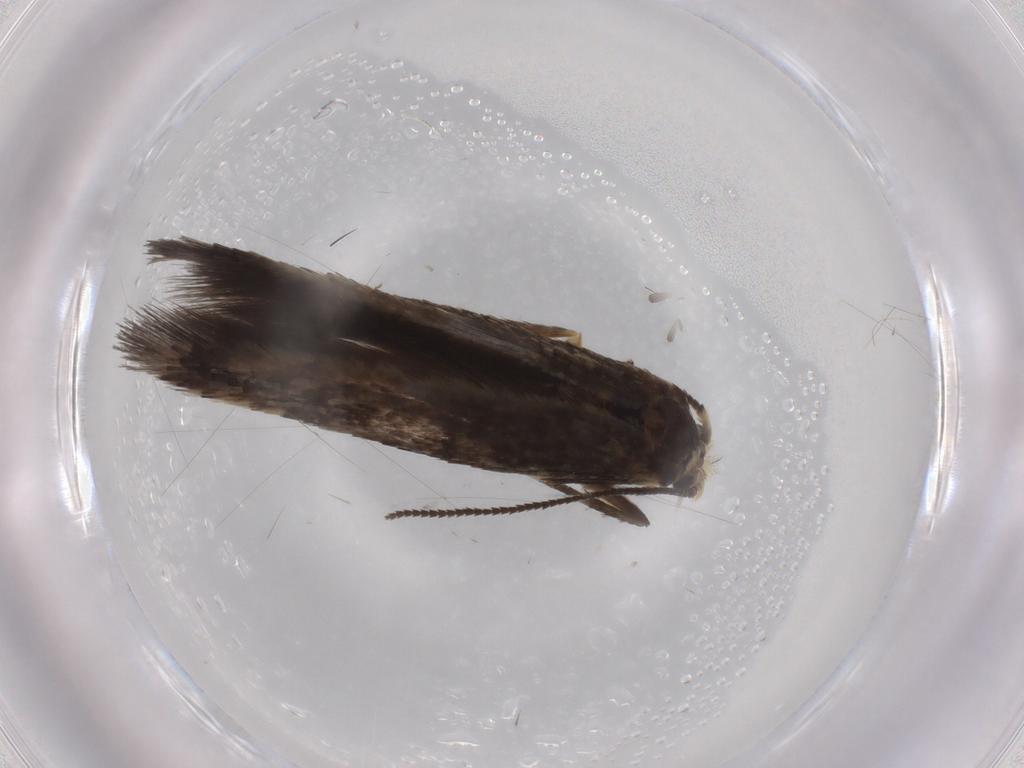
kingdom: Animalia
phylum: Arthropoda
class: Insecta
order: Lepidoptera
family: Nepticulidae
